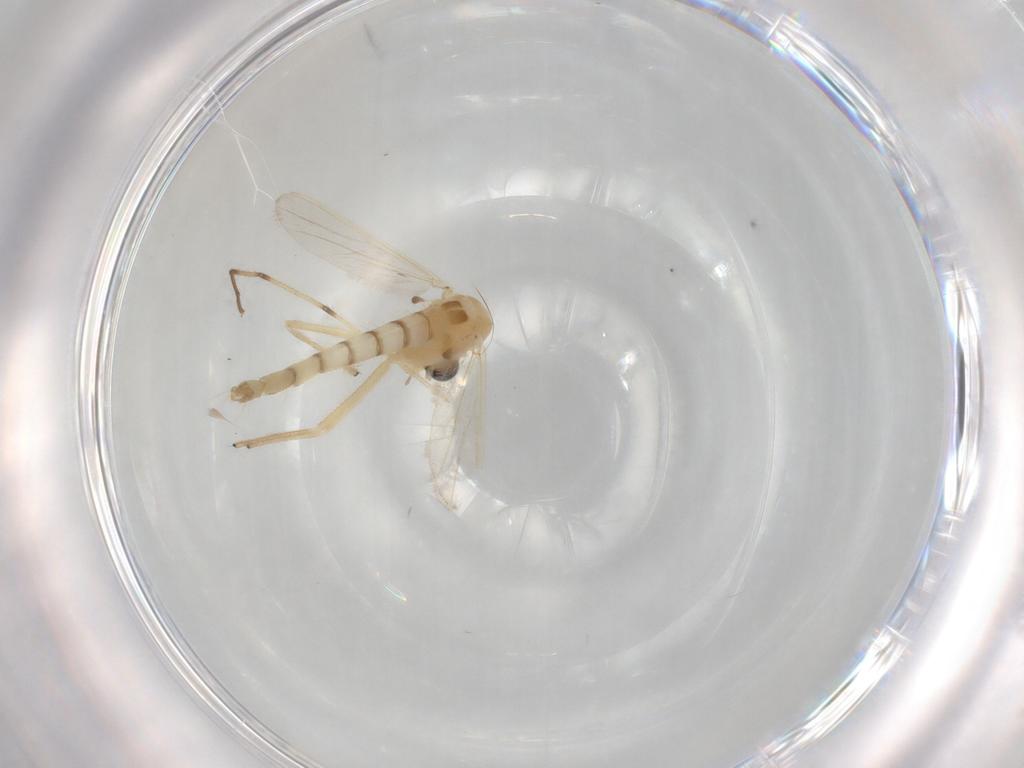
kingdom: Animalia
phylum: Arthropoda
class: Insecta
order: Diptera
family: Chironomidae
